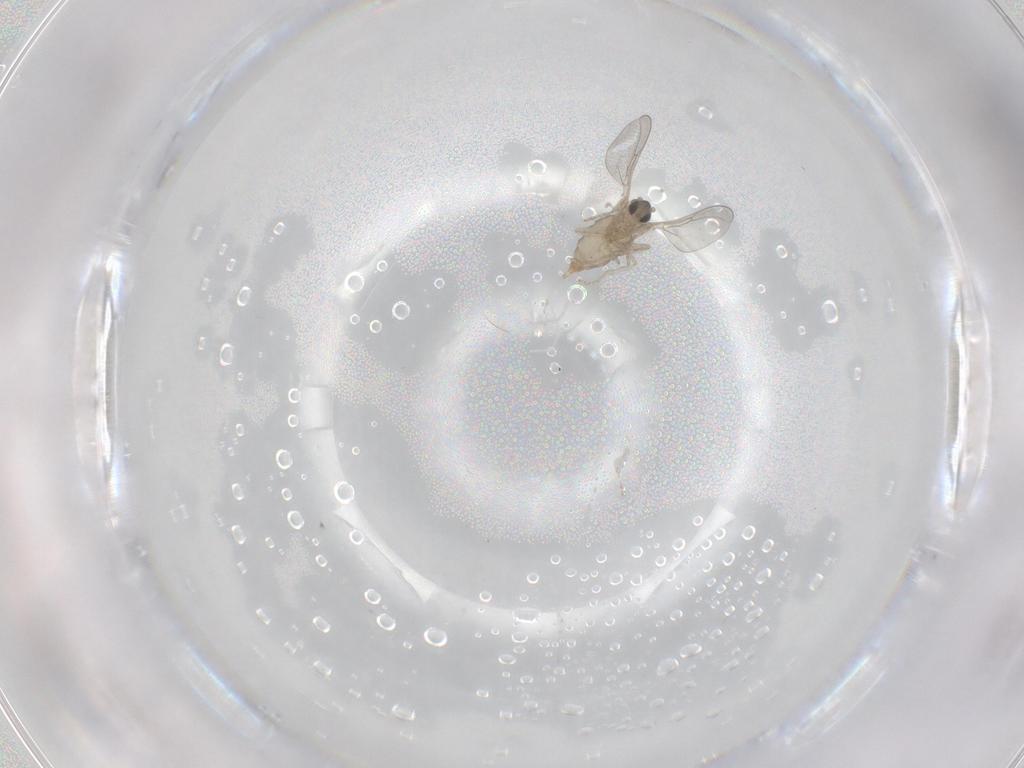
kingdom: Animalia
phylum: Arthropoda
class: Insecta
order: Diptera
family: Cecidomyiidae
